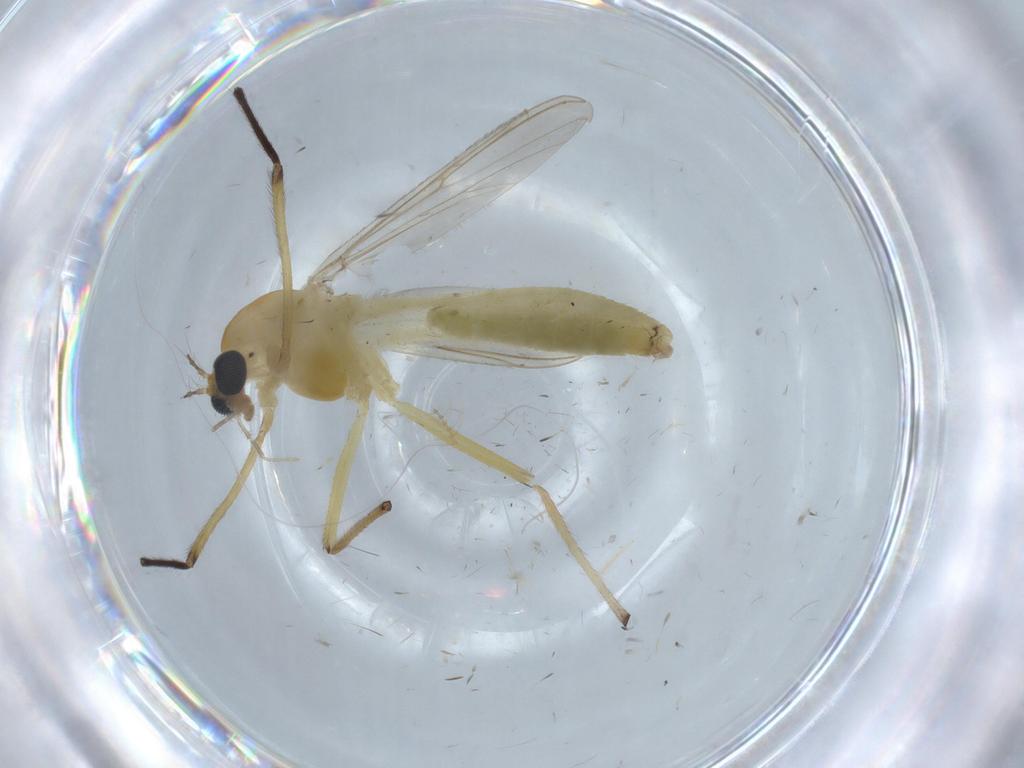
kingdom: Animalia
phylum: Arthropoda
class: Insecta
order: Diptera
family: Chironomidae
